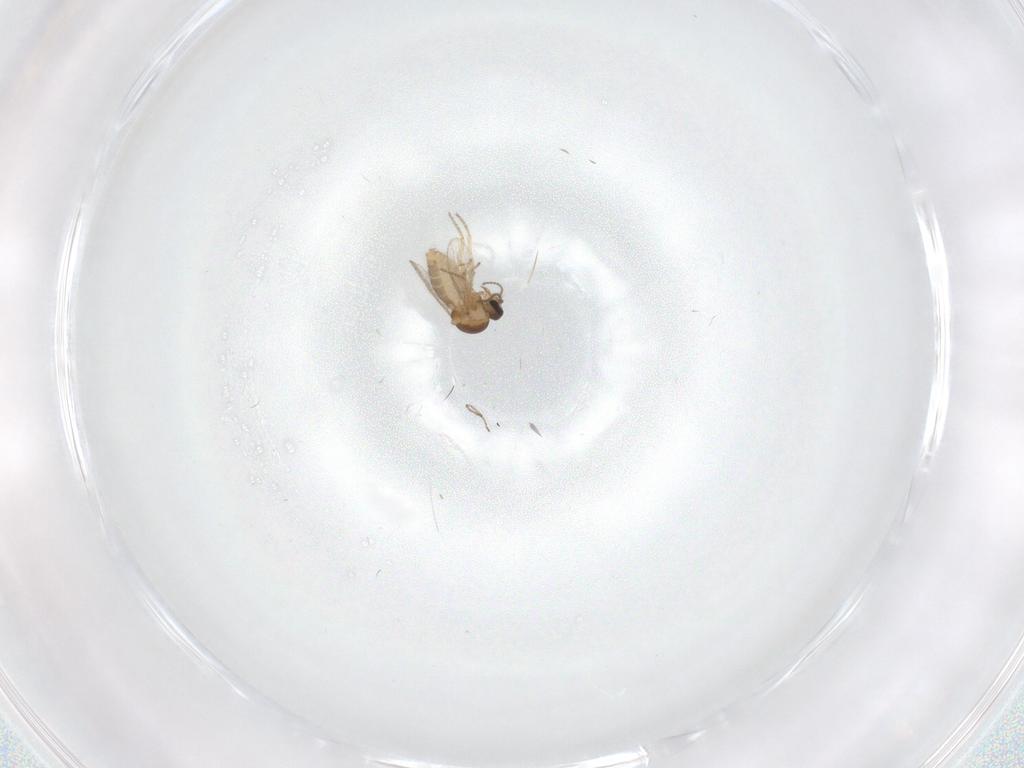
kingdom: Animalia
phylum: Arthropoda
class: Insecta
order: Diptera
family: Ceratopogonidae
